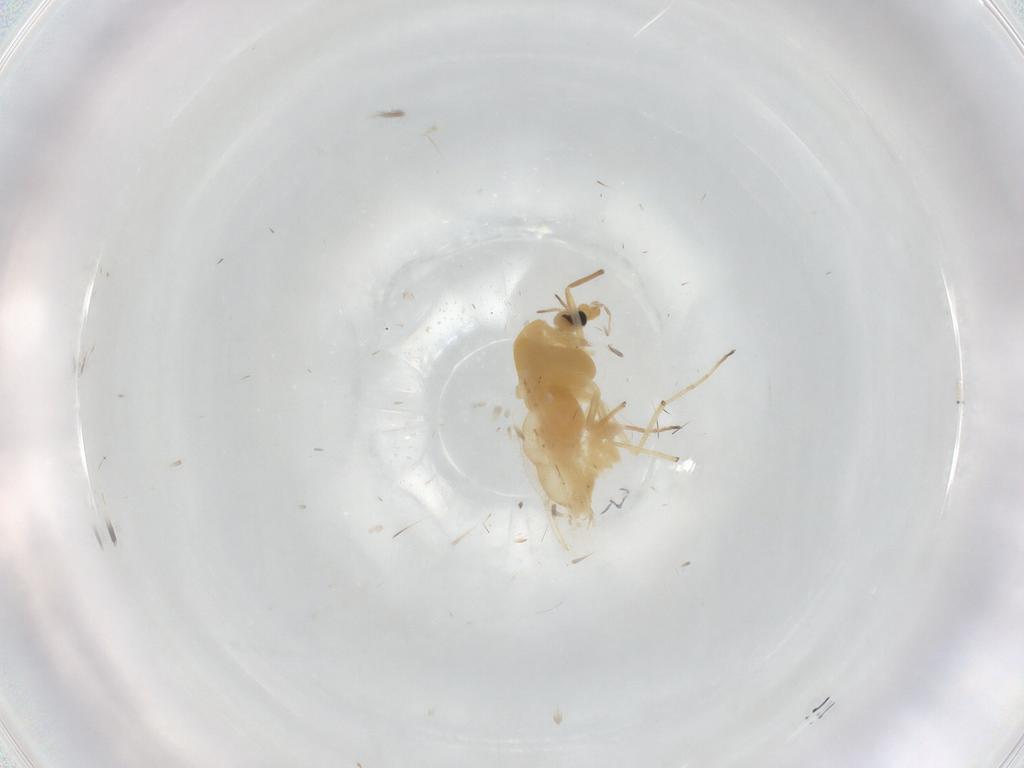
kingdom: Animalia
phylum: Arthropoda
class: Insecta
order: Diptera
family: Chironomidae
